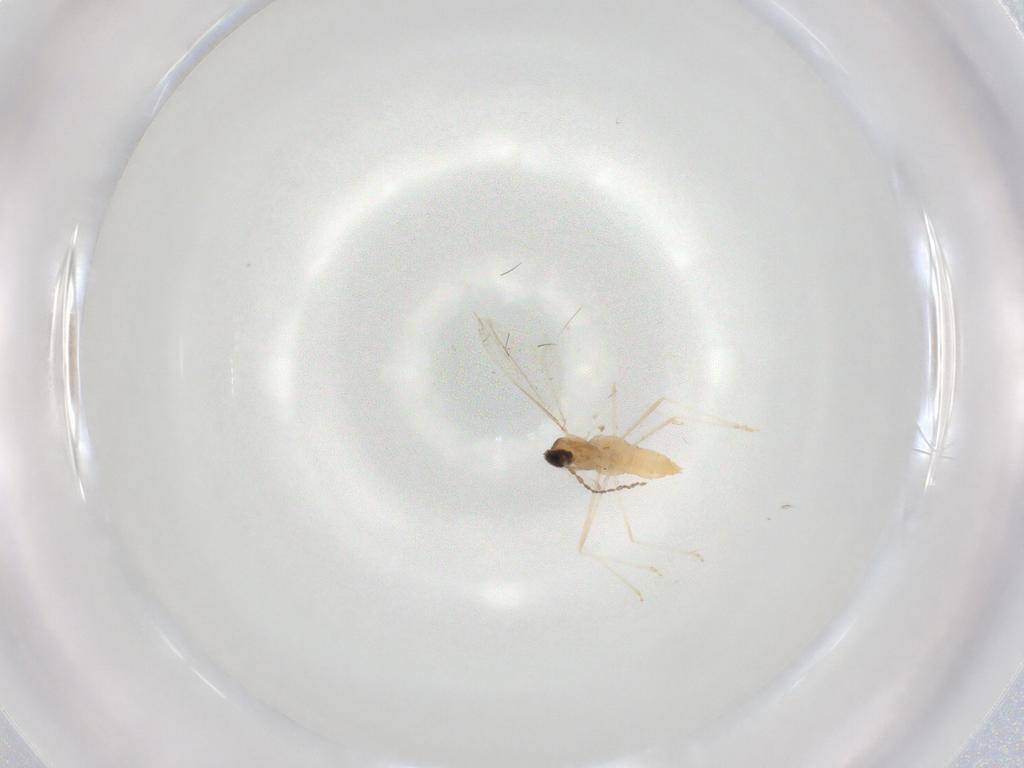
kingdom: Animalia
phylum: Arthropoda
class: Insecta
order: Diptera
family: Cecidomyiidae
